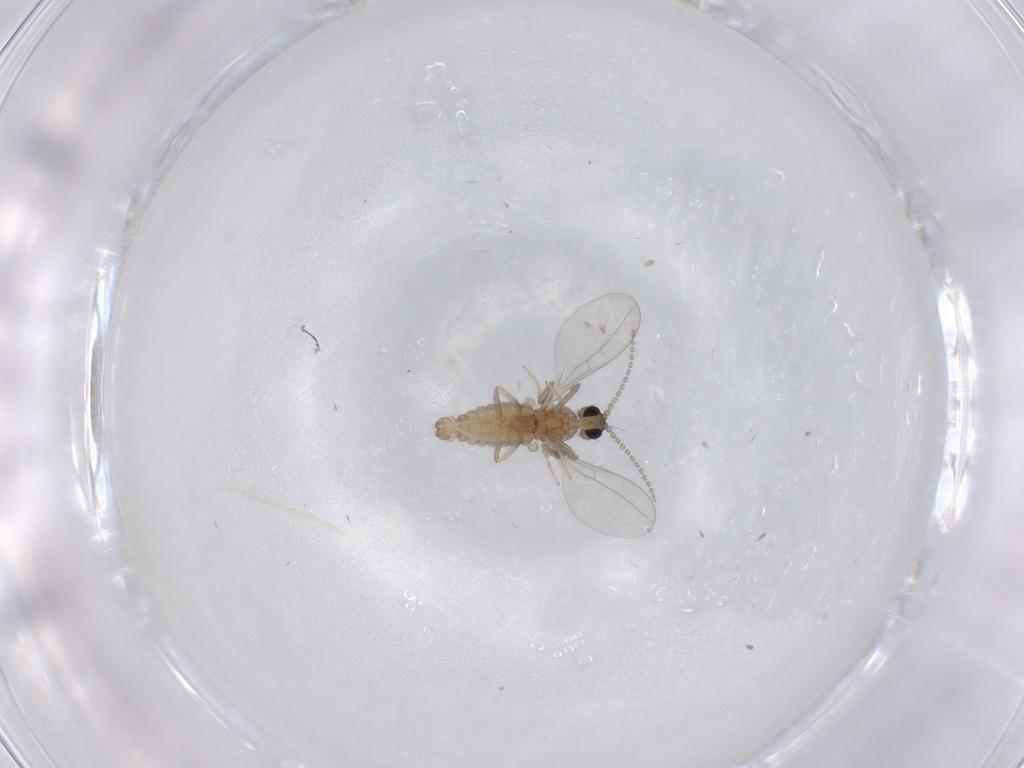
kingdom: Animalia
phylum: Arthropoda
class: Insecta
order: Diptera
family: Cecidomyiidae
